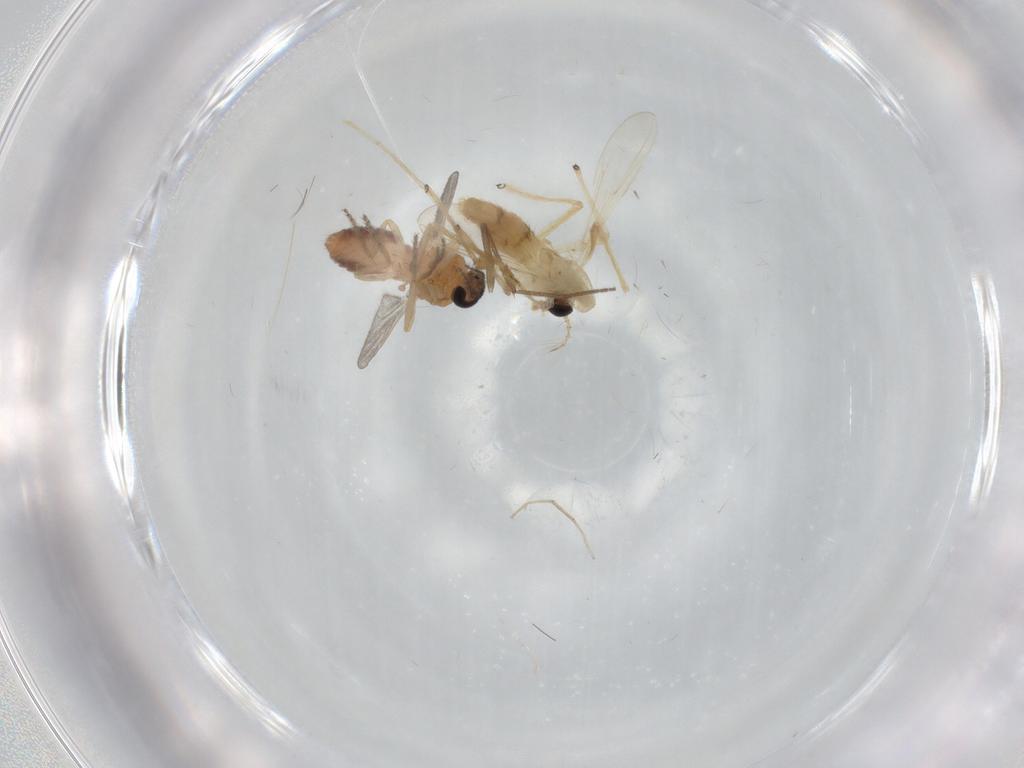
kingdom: Animalia
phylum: Arthropoda
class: Insecta
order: Diptera
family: Ceratopogonidae
